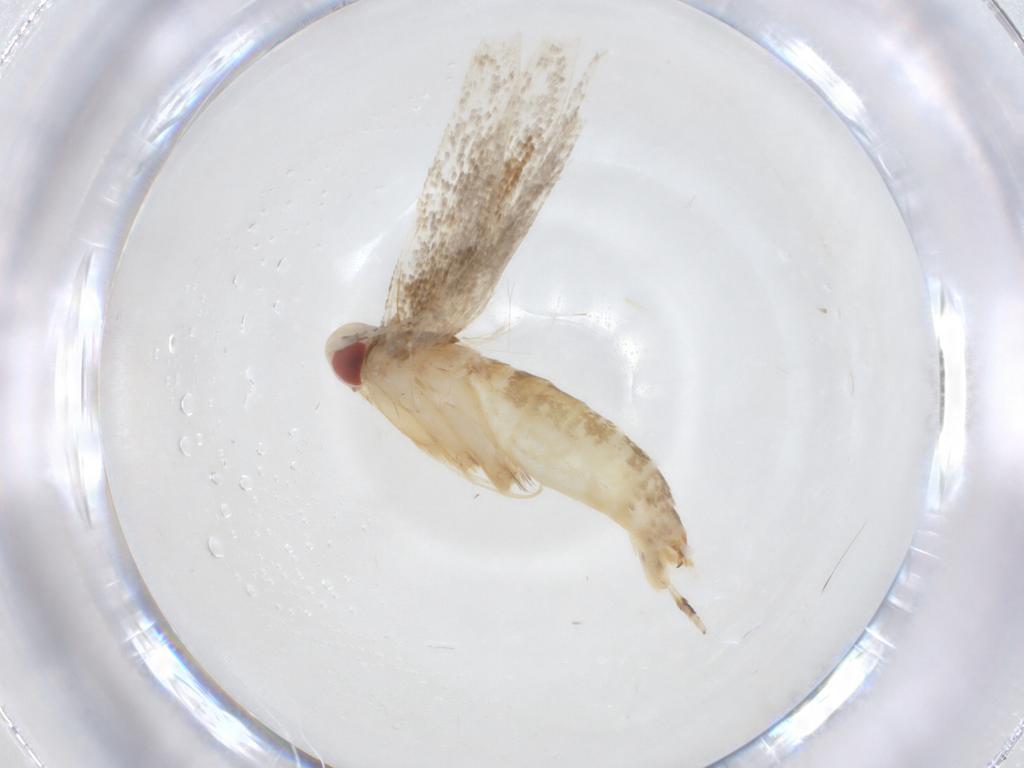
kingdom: Animalia
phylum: Arthropoda
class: Insecta
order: Lepidoptera
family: Cosmopterigidae
